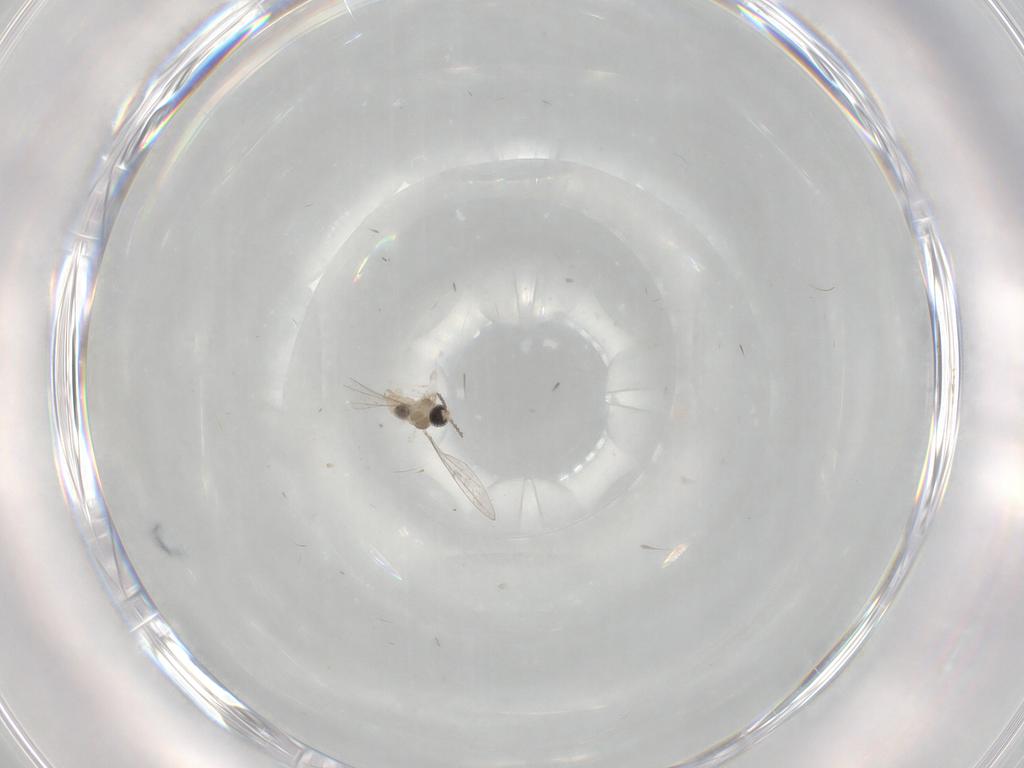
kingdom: Animalia
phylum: Arthropoda
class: Insecta
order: Diptera
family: Cecidomyiidae
